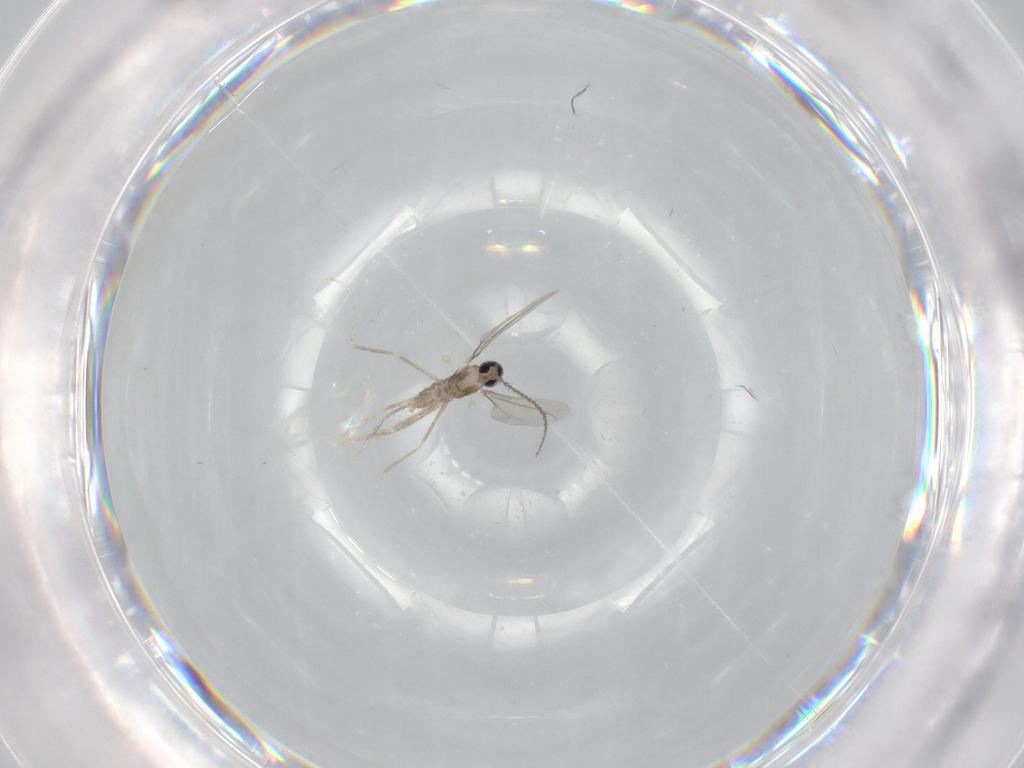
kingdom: Animalia
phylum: Arthropoda
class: Insecta
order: Diptera
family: Cecidomyiidae
